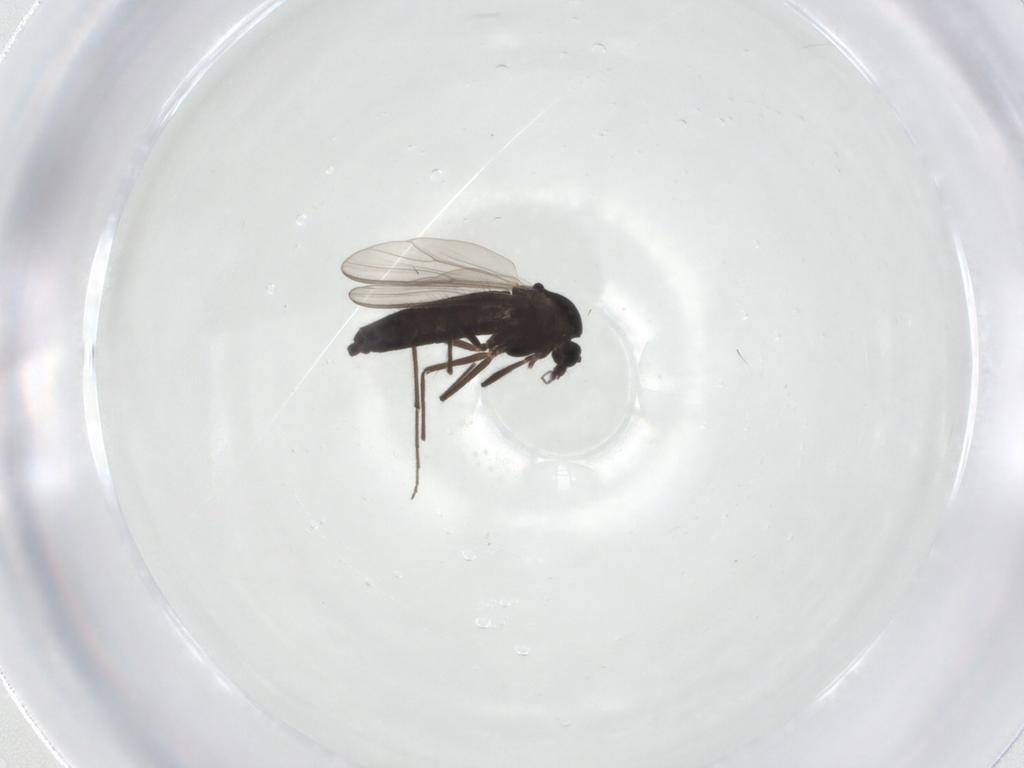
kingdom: Animalia
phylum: Arthropoda
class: Insecta
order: Diptera
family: Chironomidae
